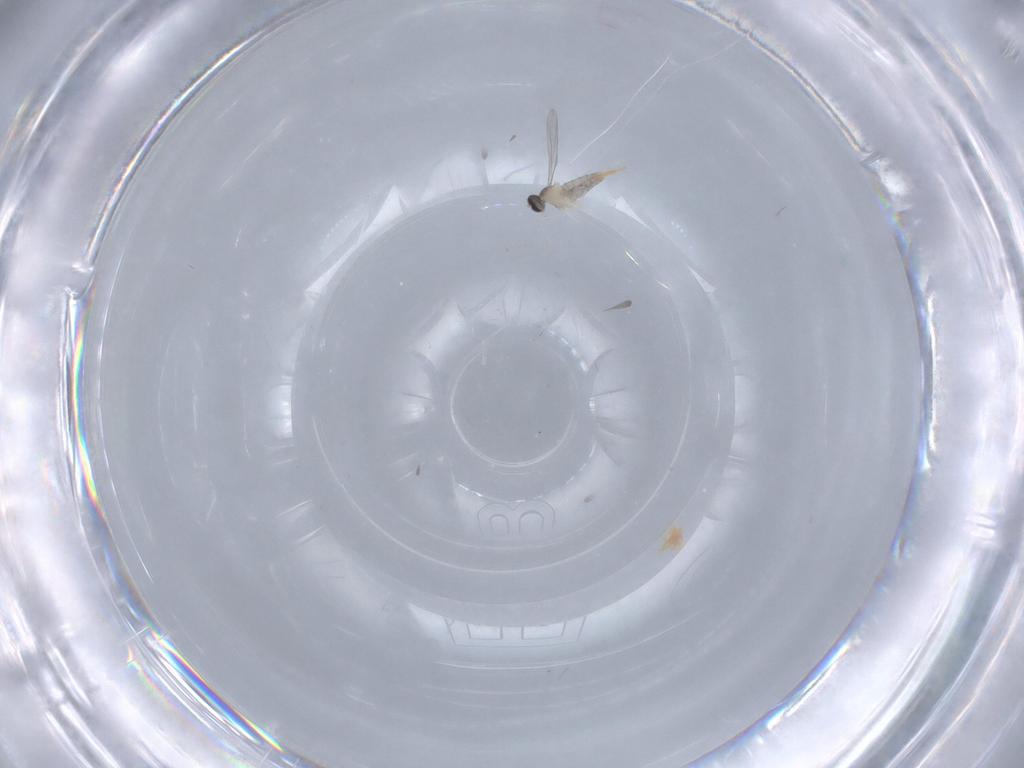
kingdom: Animalia
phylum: Arthropoda
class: Insecta
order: Diptera
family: Cecidomyiidae
